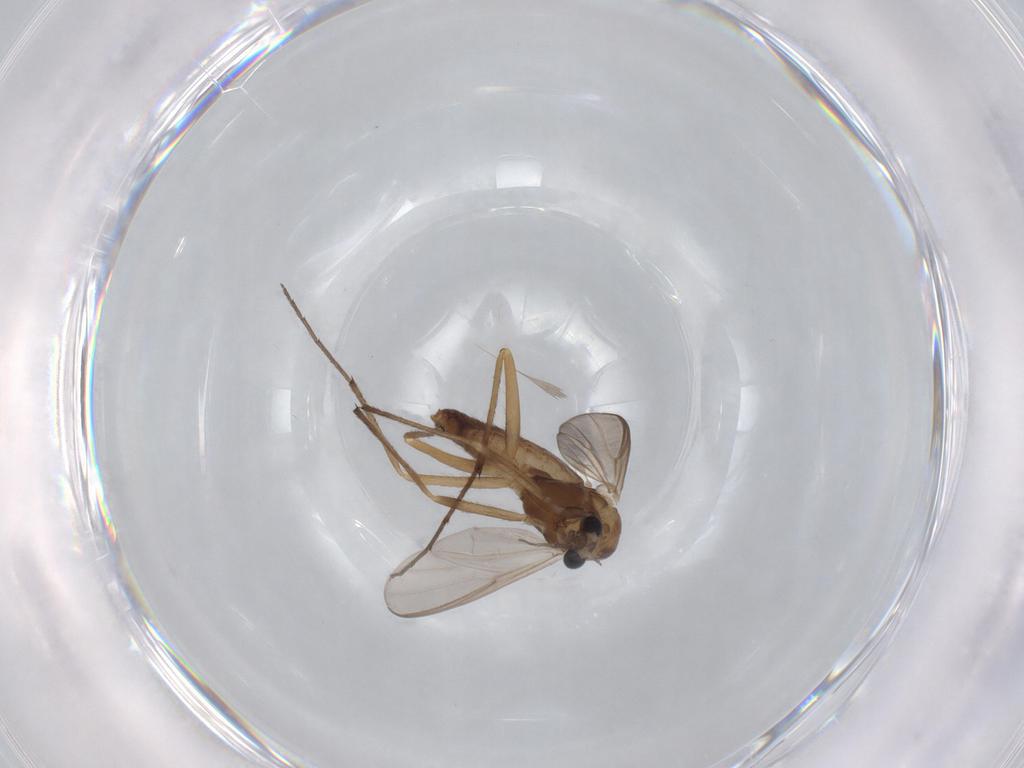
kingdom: Animalia
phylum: Arthropoda
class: Insecta
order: Diptera
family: Chironomidae
